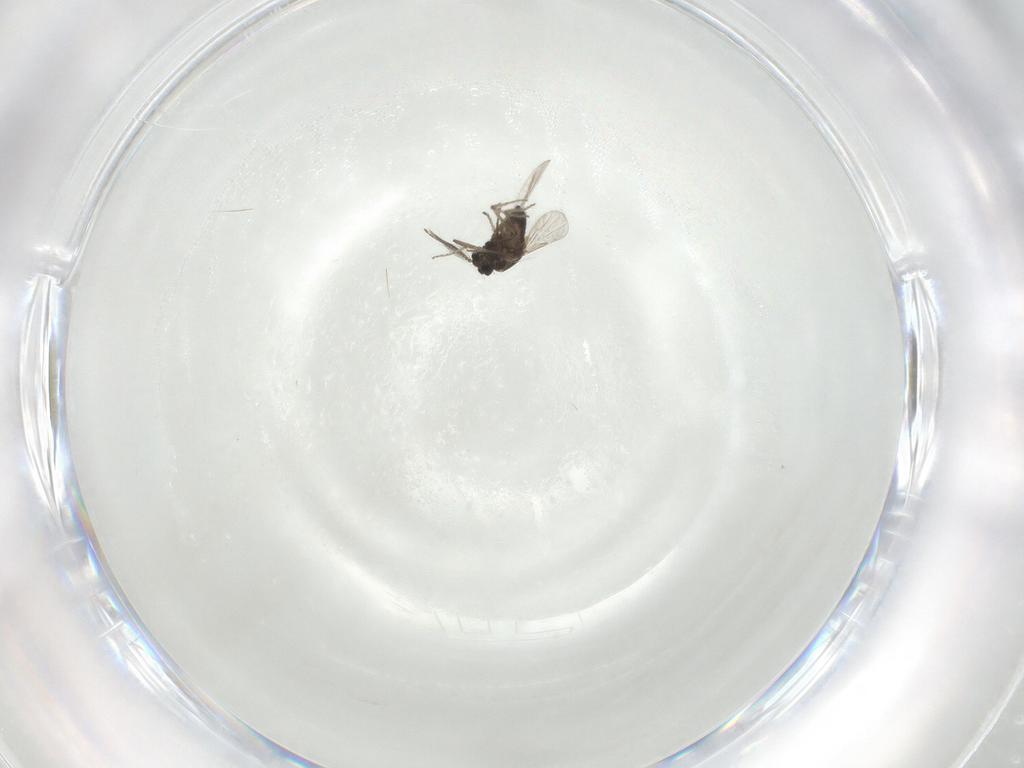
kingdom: Animalia
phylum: Arthropoda
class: Insecta
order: Diptera
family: Ceratopogonidae
